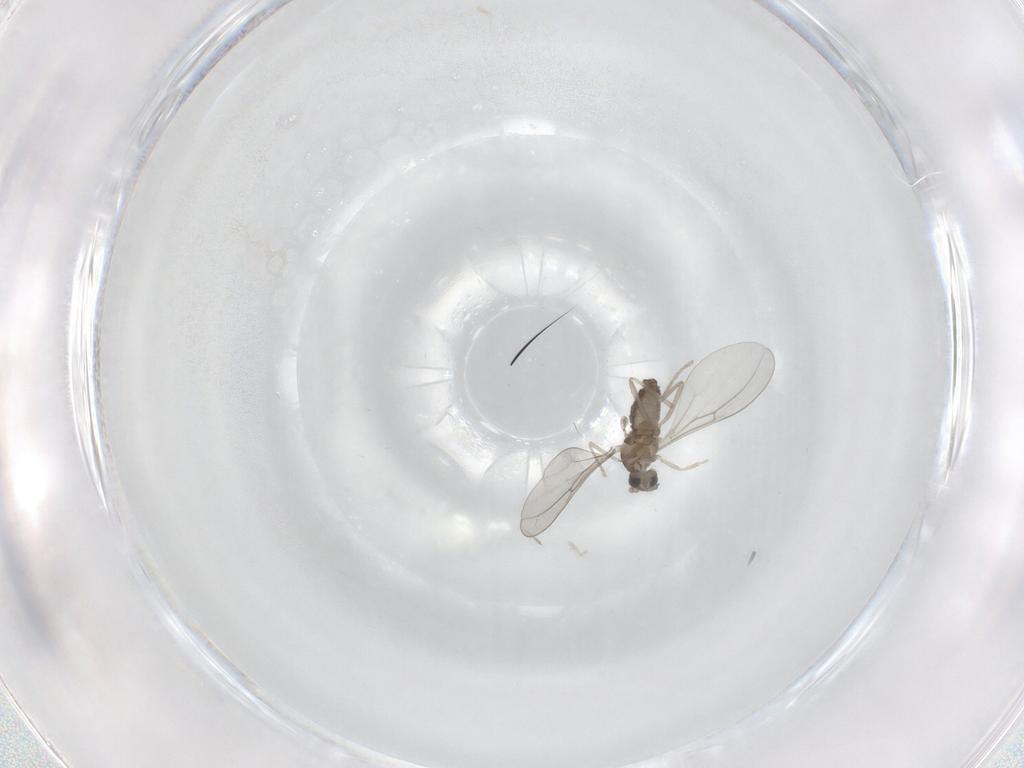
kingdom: Animalia
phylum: Arthropoda
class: Insecta
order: Diptera
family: Cecidomyiidae
